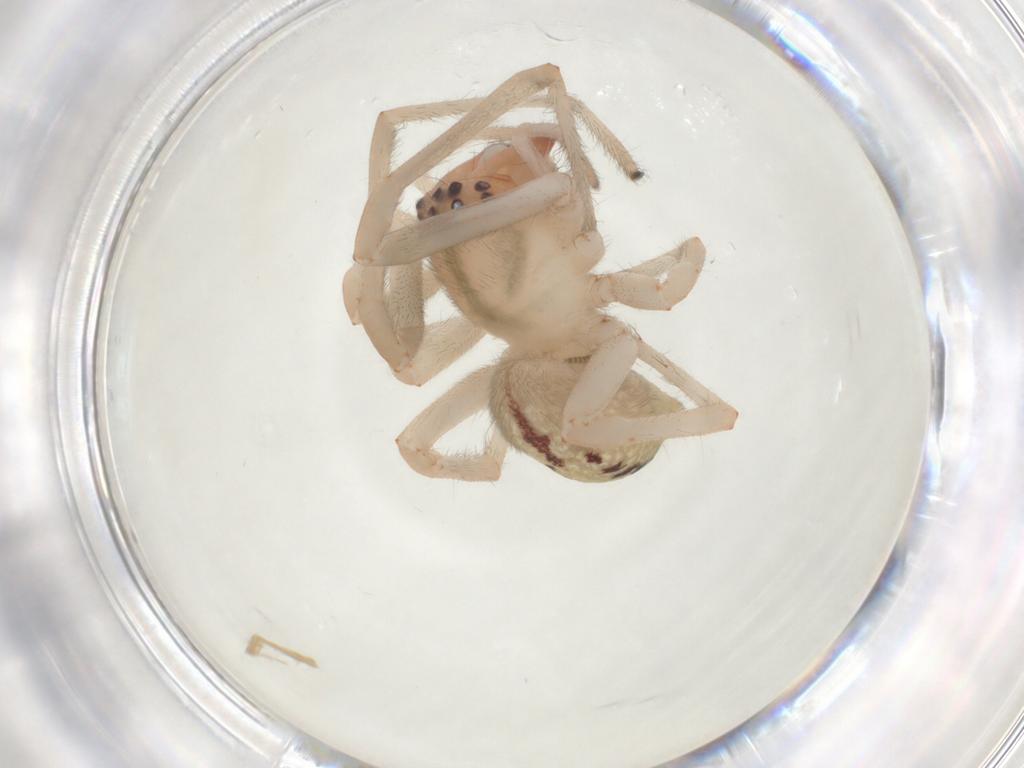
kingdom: Animalia
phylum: Arthropoda
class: Arachnida
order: Araneae
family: Cheiracanthiidae
